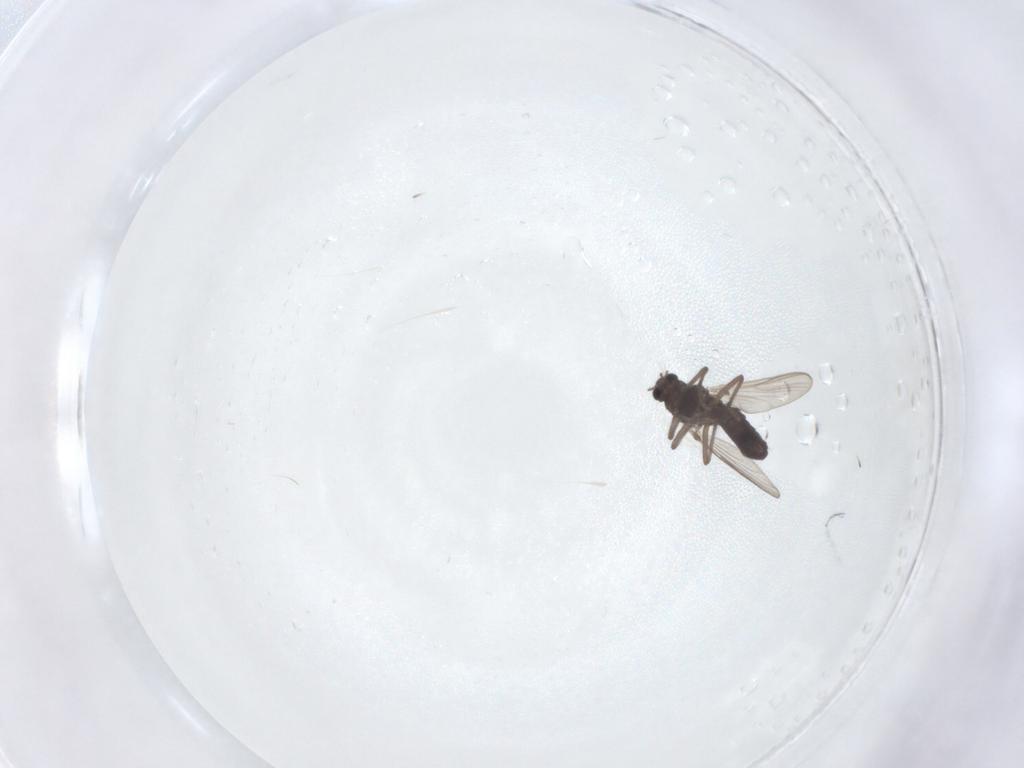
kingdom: Animalia
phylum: Arthropoda
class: Insecta
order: Diptera
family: Chironomidae
